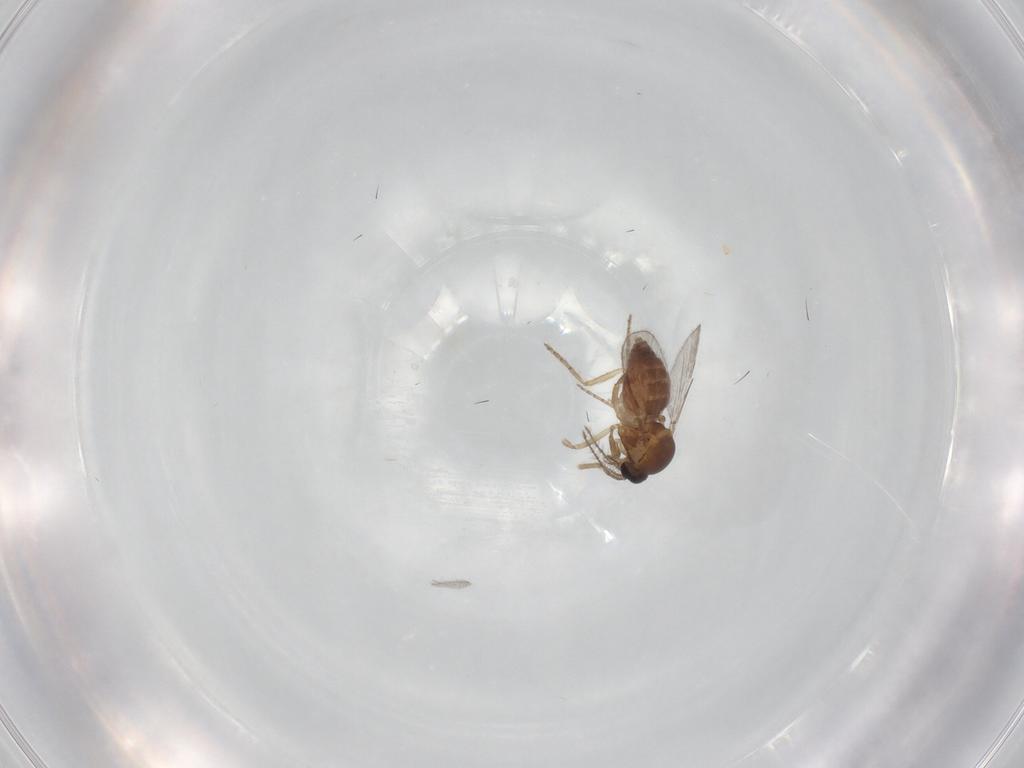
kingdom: Animalia
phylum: Arthropoda
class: Insecta
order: Diptera
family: Calliphoridae
